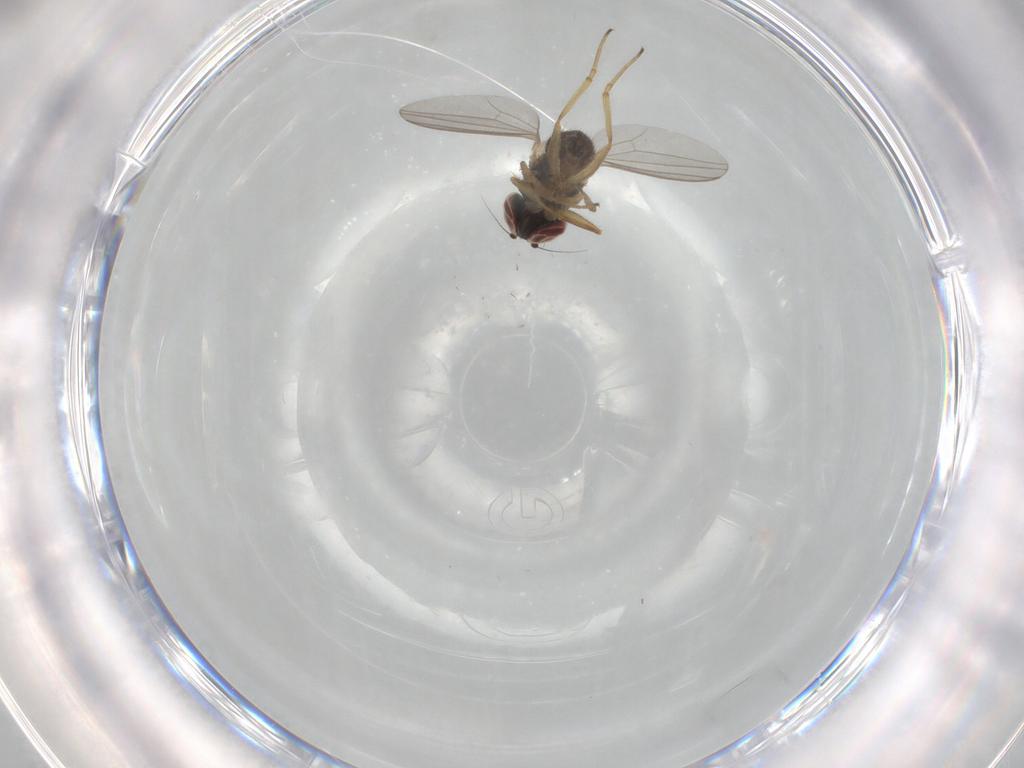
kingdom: Animalia
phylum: Arthropoda
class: Insecta
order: Diptera
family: Dolichopodidae
